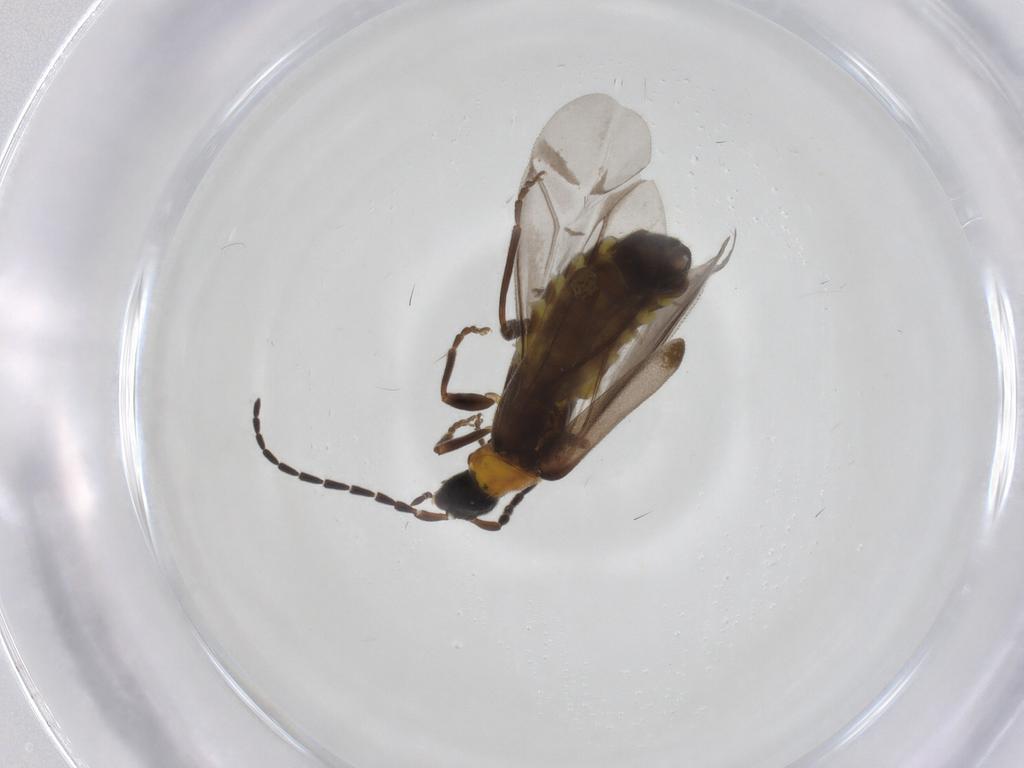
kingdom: Animalia
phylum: Arthropoda
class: Insecta
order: Coleoptera
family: Cantharidae
